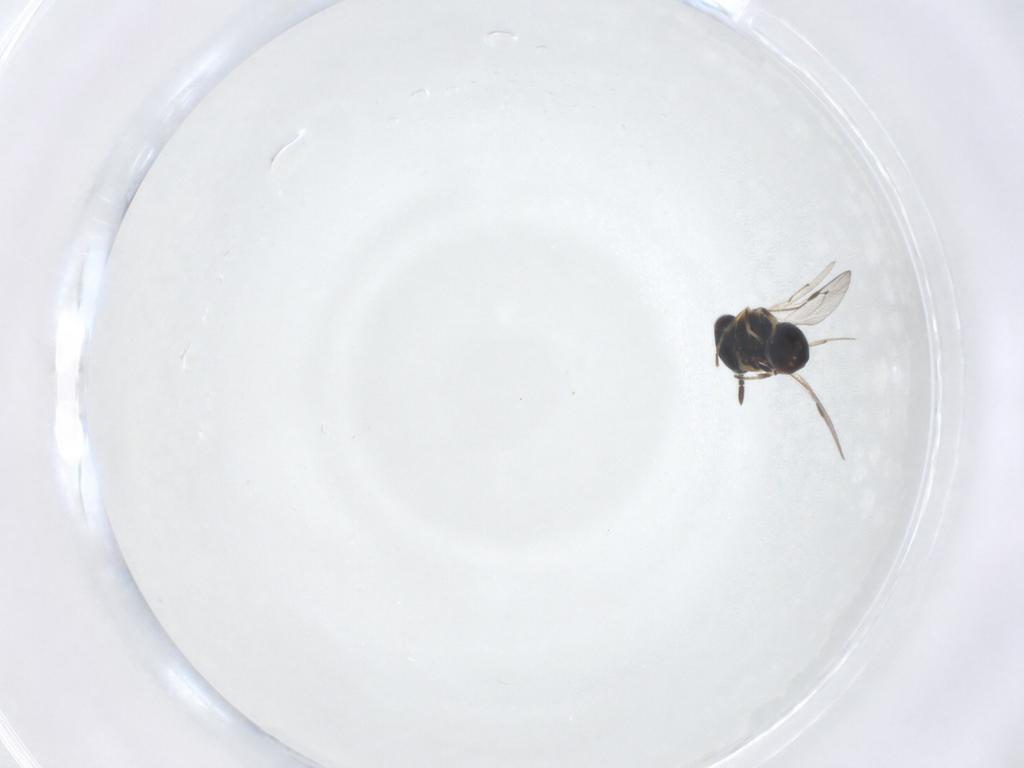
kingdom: Animalia
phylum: Arthropoda
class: Insecta
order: Hymenoptera
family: Pteromalidae
